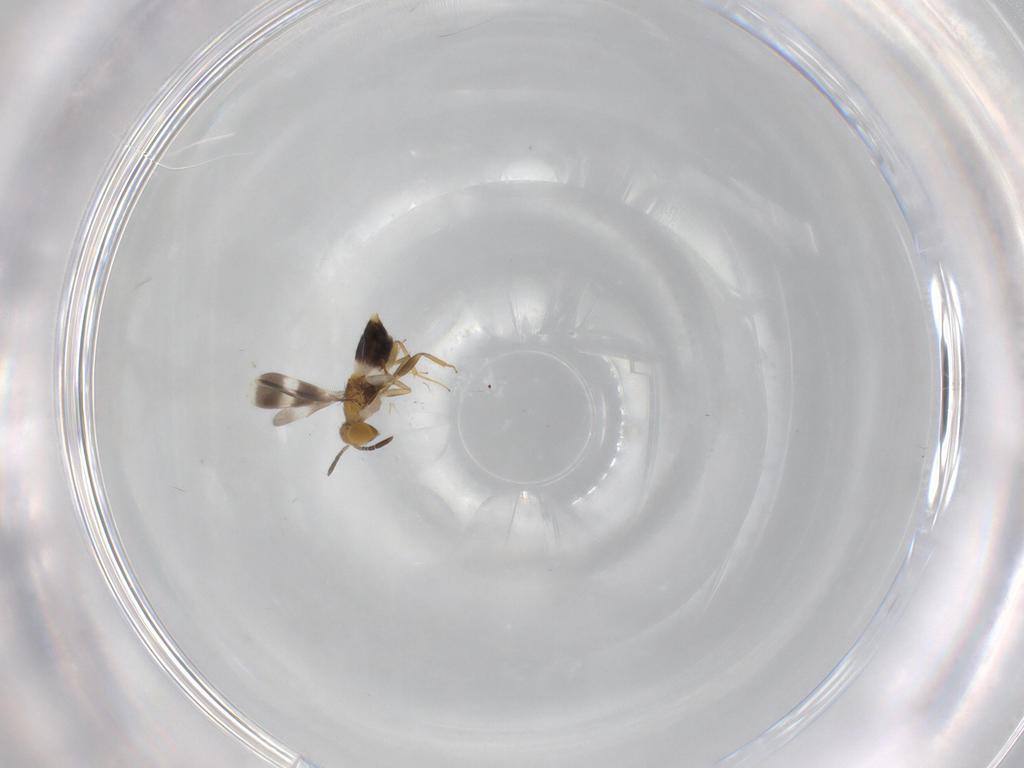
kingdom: Animalia
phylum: Arthropoda
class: Insecta
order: Hymenoptera
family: Aphelinidae
